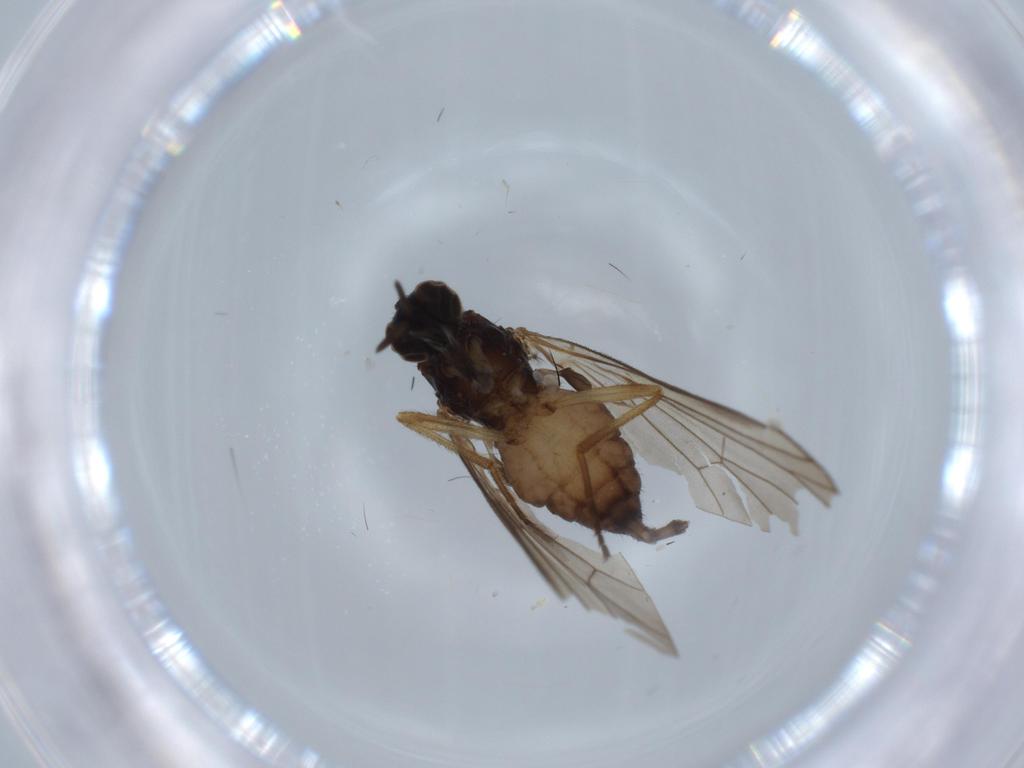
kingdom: Animalia
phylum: Arthropoda
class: Insecta
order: Diptera
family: Iteaphilidae
